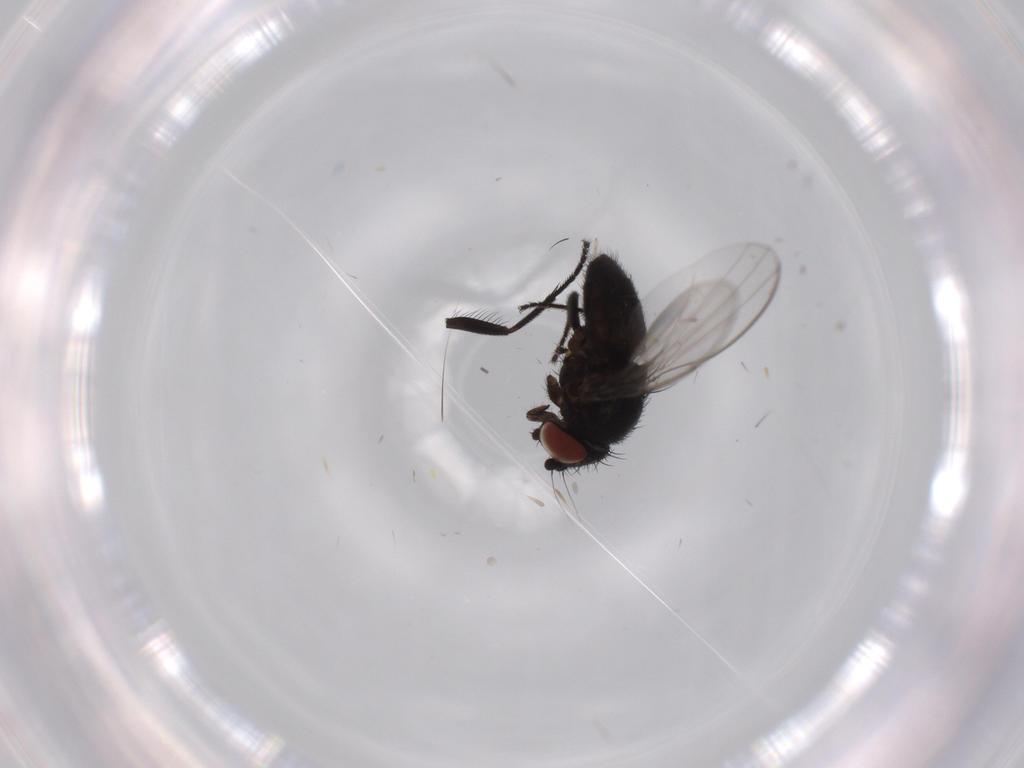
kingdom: Animalia
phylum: Arthropoda
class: Insecta
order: Diptera
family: Milichiidae
